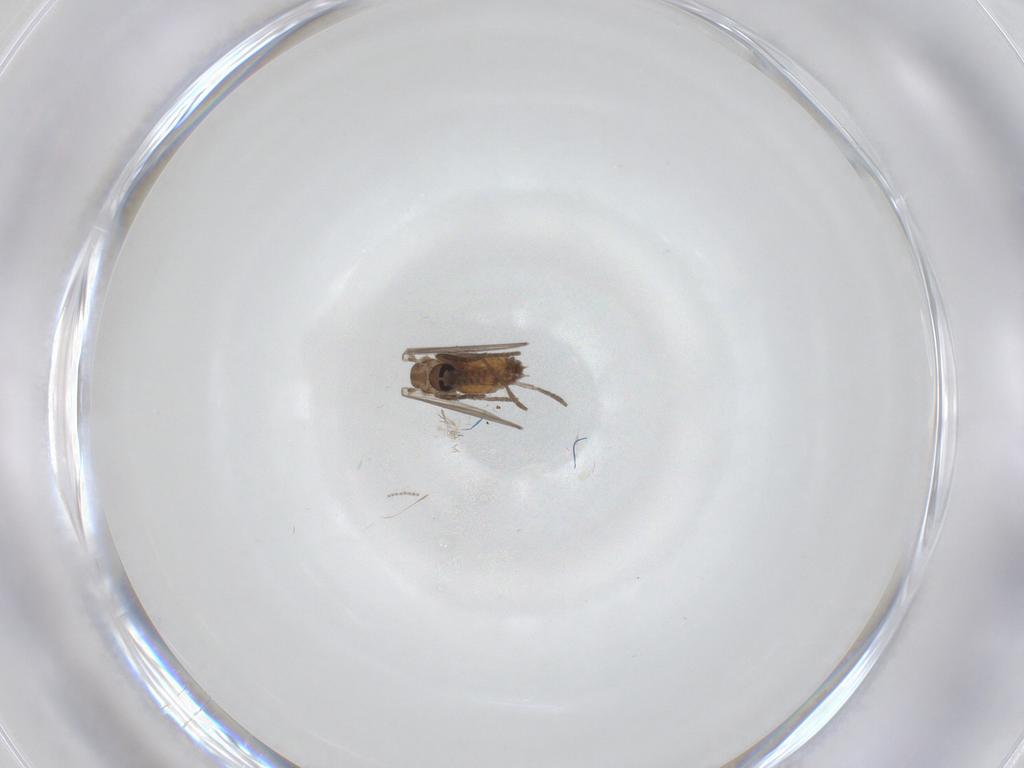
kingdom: Animalia
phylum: Arthropoda
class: Insecta
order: Diptera
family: Psychodidae
